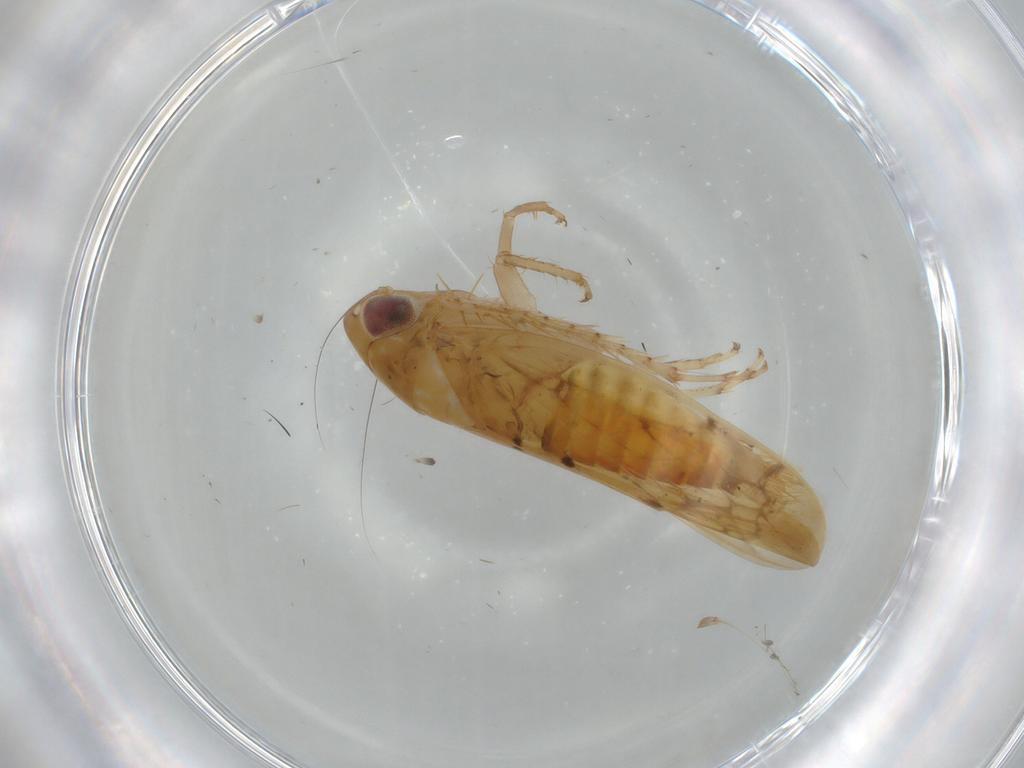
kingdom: Animalia
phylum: Arthropoda
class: Insecta
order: Hemiptera
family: Cicadellidae
